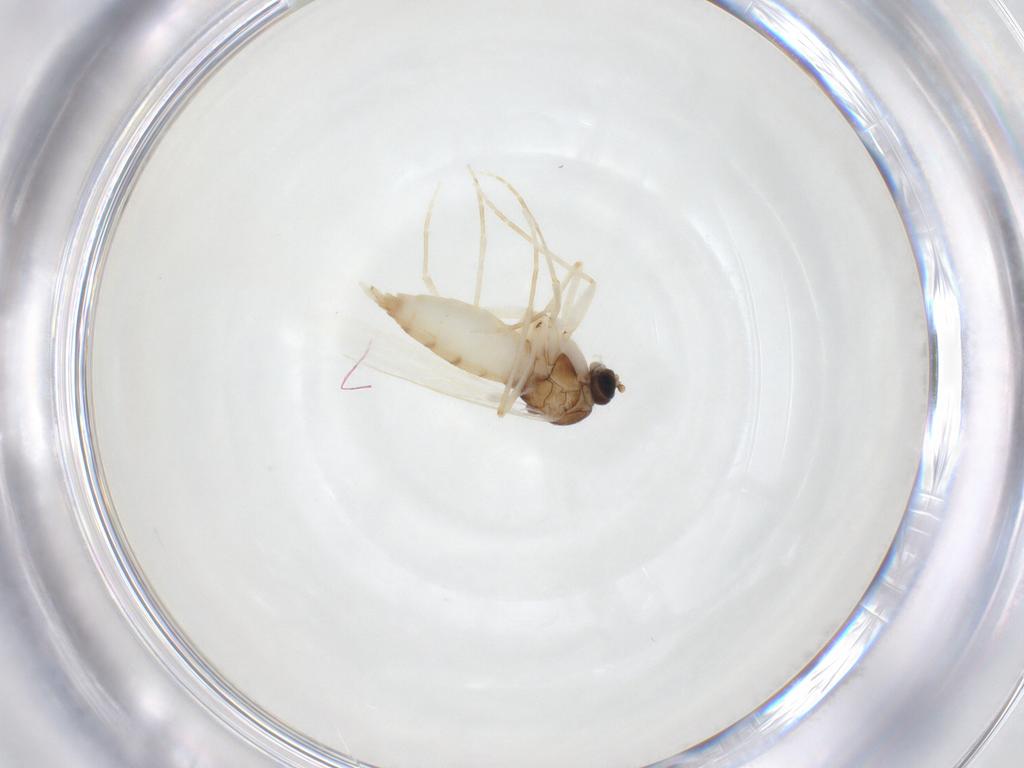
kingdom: Animalia
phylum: Arthropoda
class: Insecta
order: Diptera
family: Sciaridae
